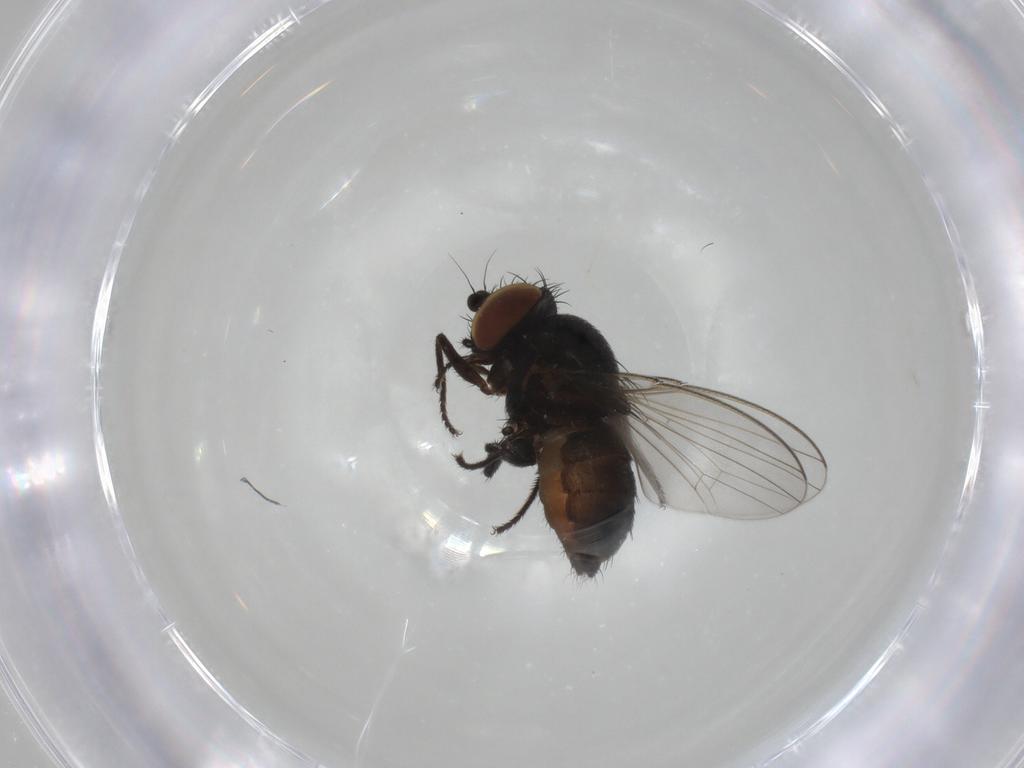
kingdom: Animalia
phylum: Arthropoda
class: Insecta
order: Diptera
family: Milichiidae
